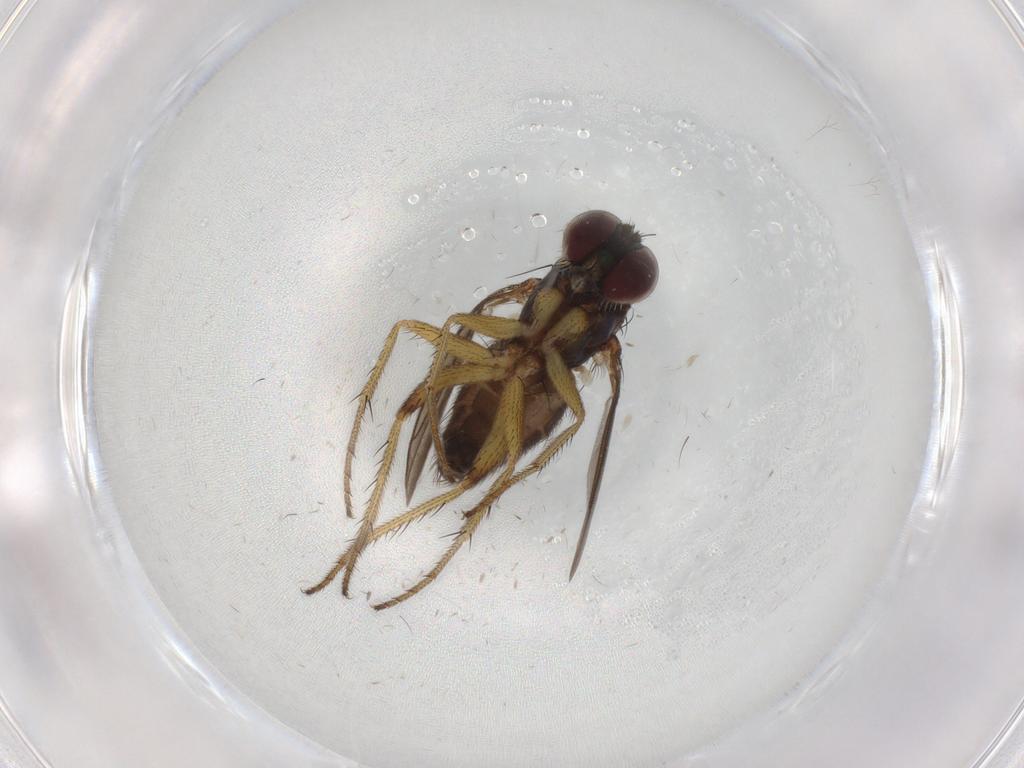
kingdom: Animalia
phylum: Arthropoda
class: Insecta
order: Diptera
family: Dolichopodidae
